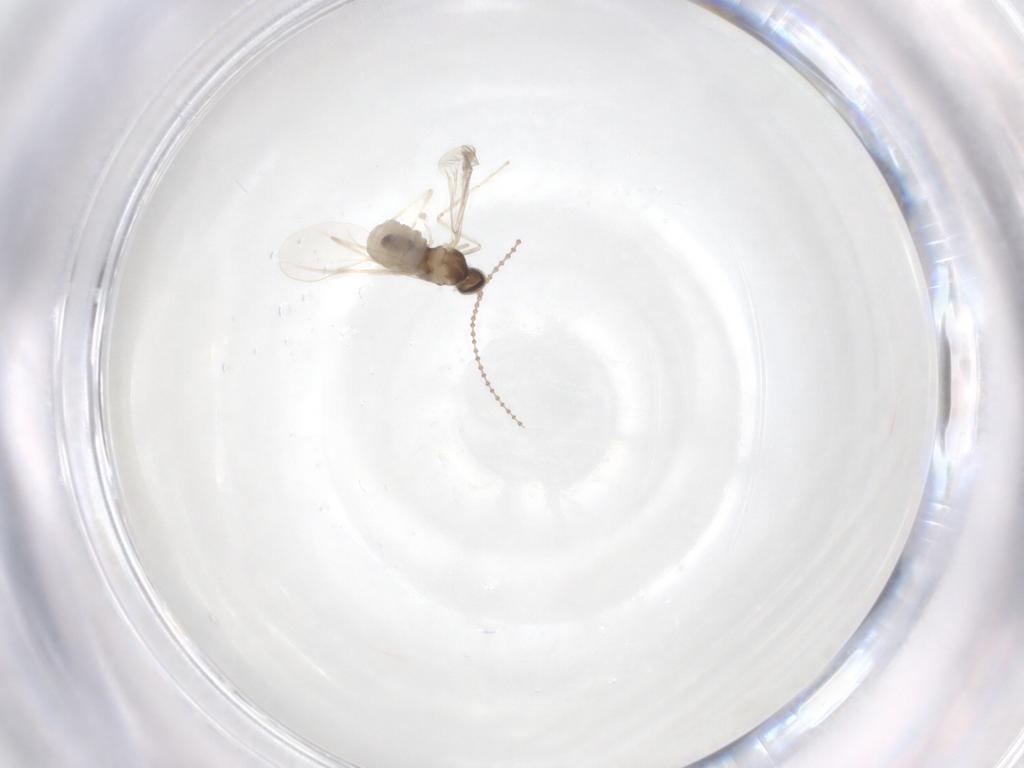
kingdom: Animalia
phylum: Arthropoda
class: Insecta
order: Diptera
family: Cecidomyiidae
